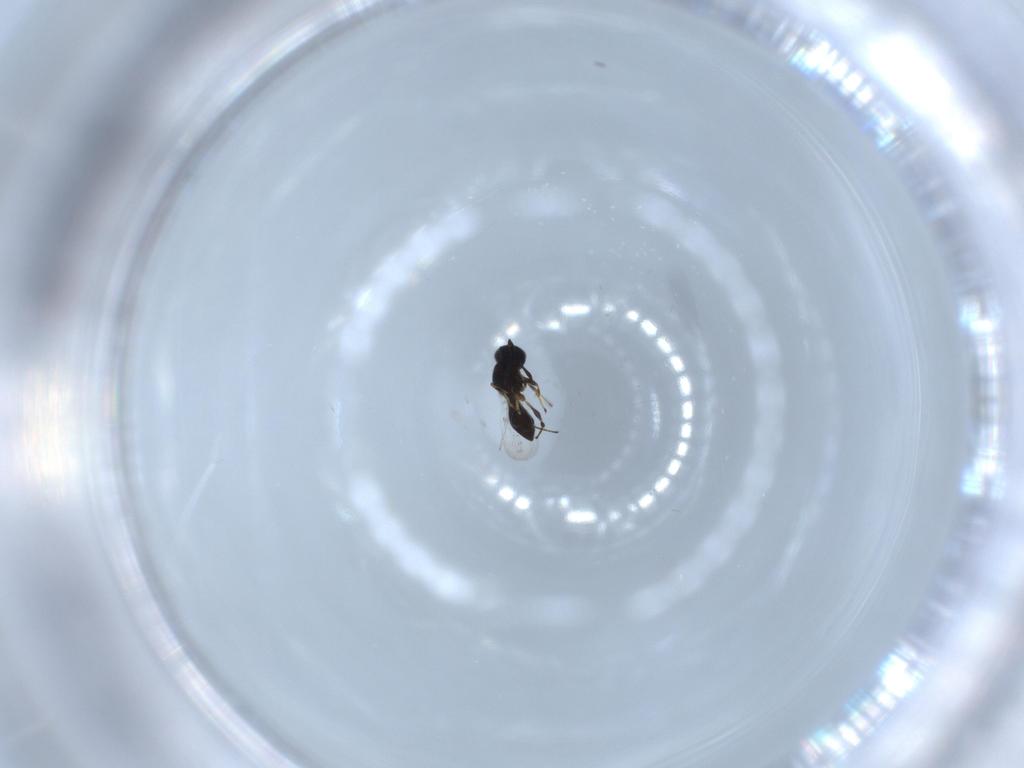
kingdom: Animalia
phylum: Arthropoda
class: Insecta
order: Hymenoptera
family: Platygastridae
